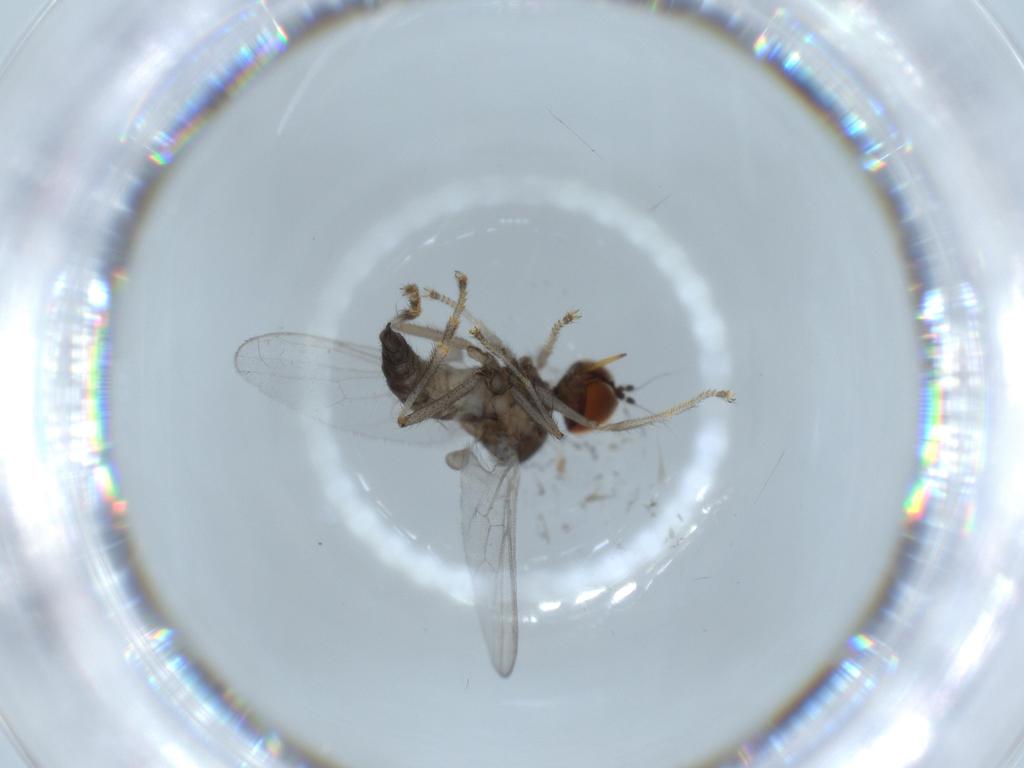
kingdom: Animalia
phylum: Arthropoda
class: Insecta
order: Diptera
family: Hybotidae
